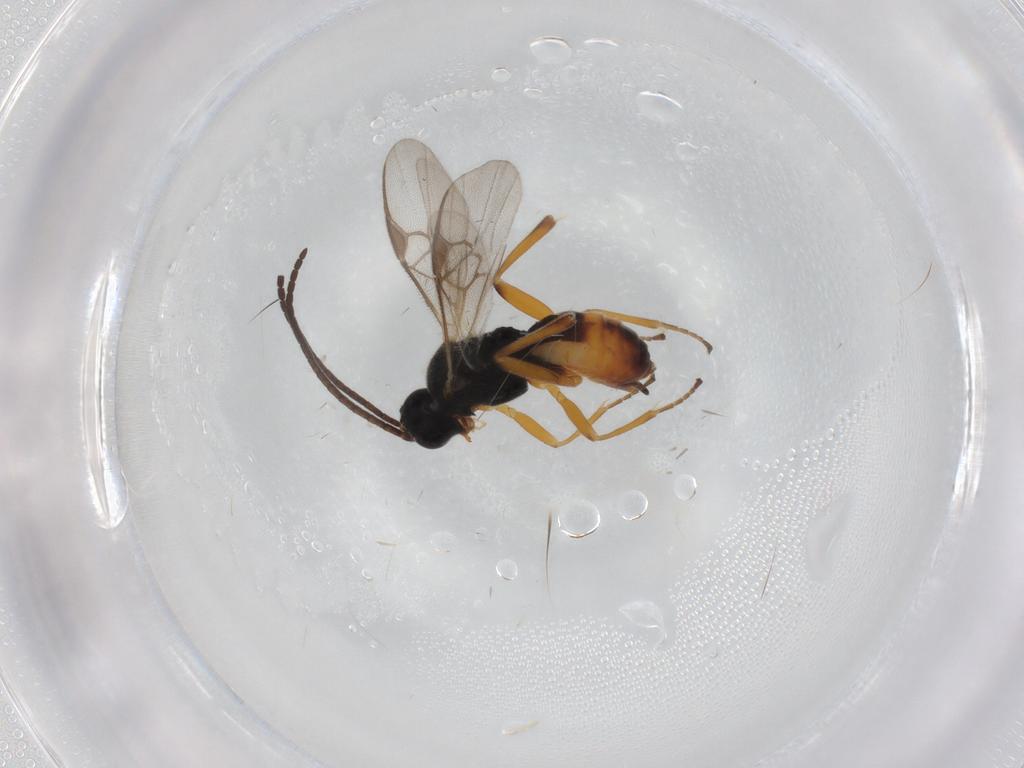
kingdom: Animalia
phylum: Arthropoda
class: Insecta
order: Hymenoptera
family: Braconidae
